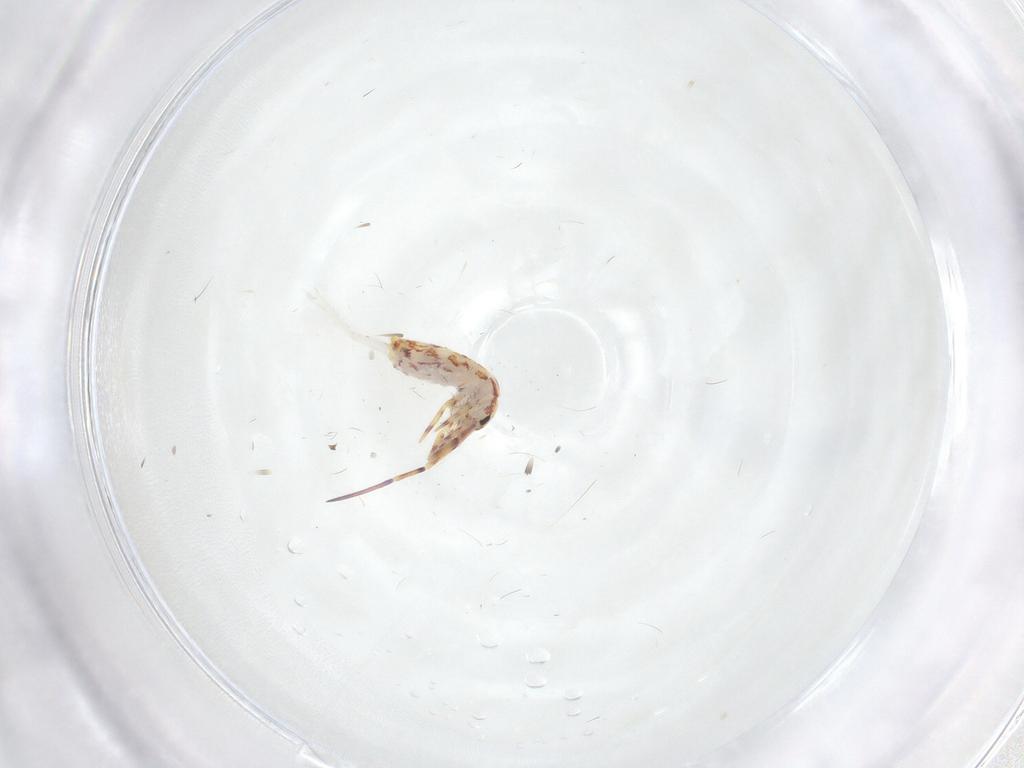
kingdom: Animalia
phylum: Arthropoda
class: Collembola
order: Entomobryomorpha
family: Entomobryidae
